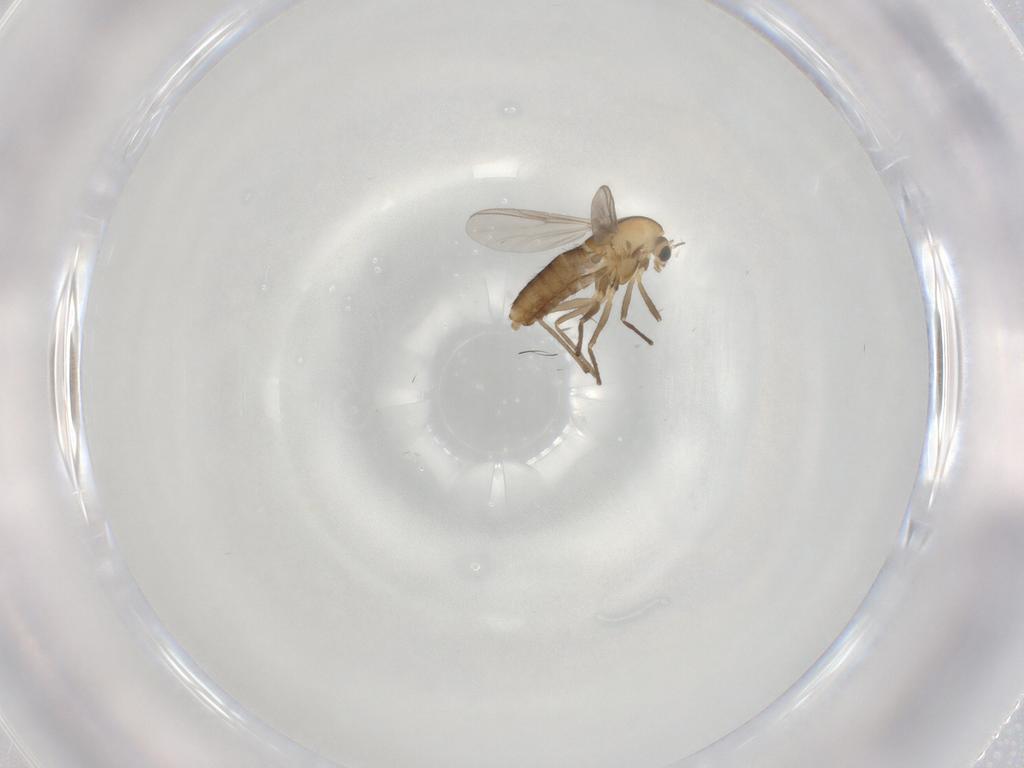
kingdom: Animalia
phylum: Arthropoda
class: Insecta
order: Diptera
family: Chironomidae
